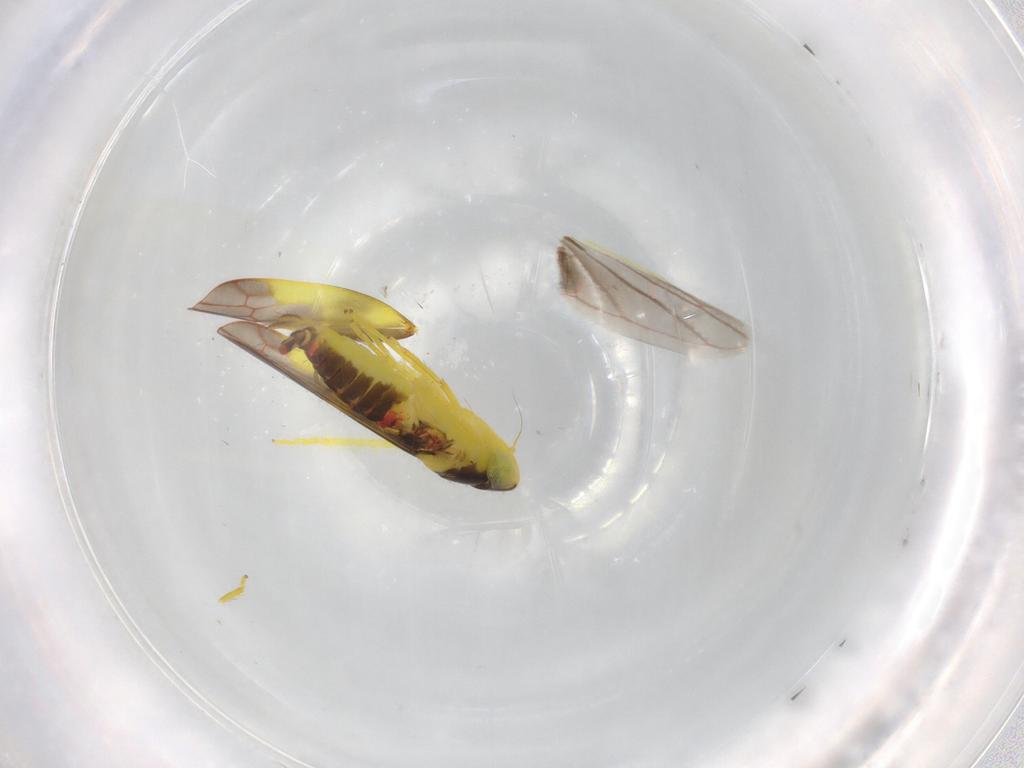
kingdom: Animalia
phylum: Arthropoda
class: Insecta
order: Hemiptera
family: Cicadellidae
